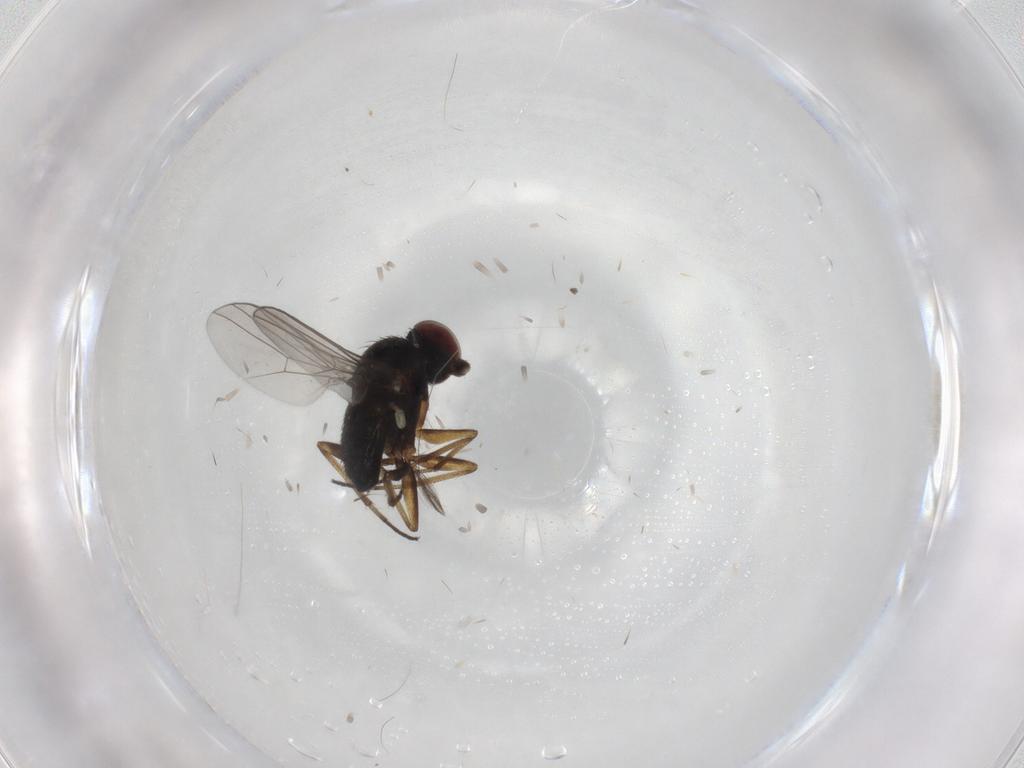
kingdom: Animalia
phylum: Arthropoda
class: Insecta
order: Diptera
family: Dolichopodidae
